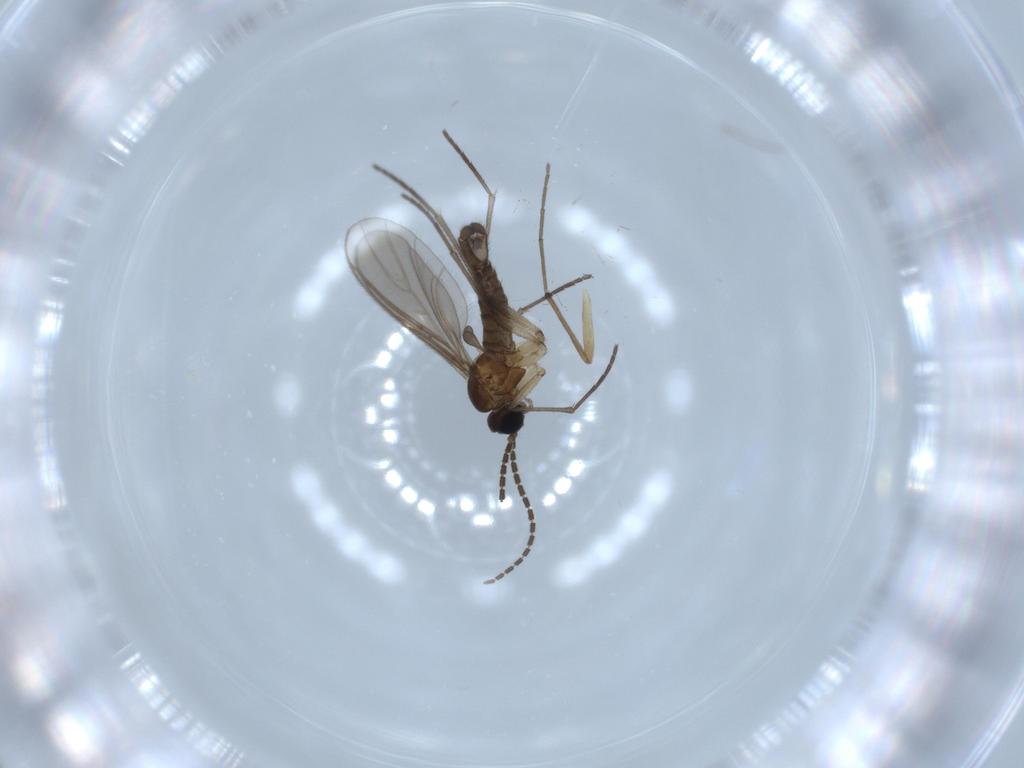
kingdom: Animalia
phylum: Arthropoda
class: Insecta
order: Diptera
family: Sciaridae
